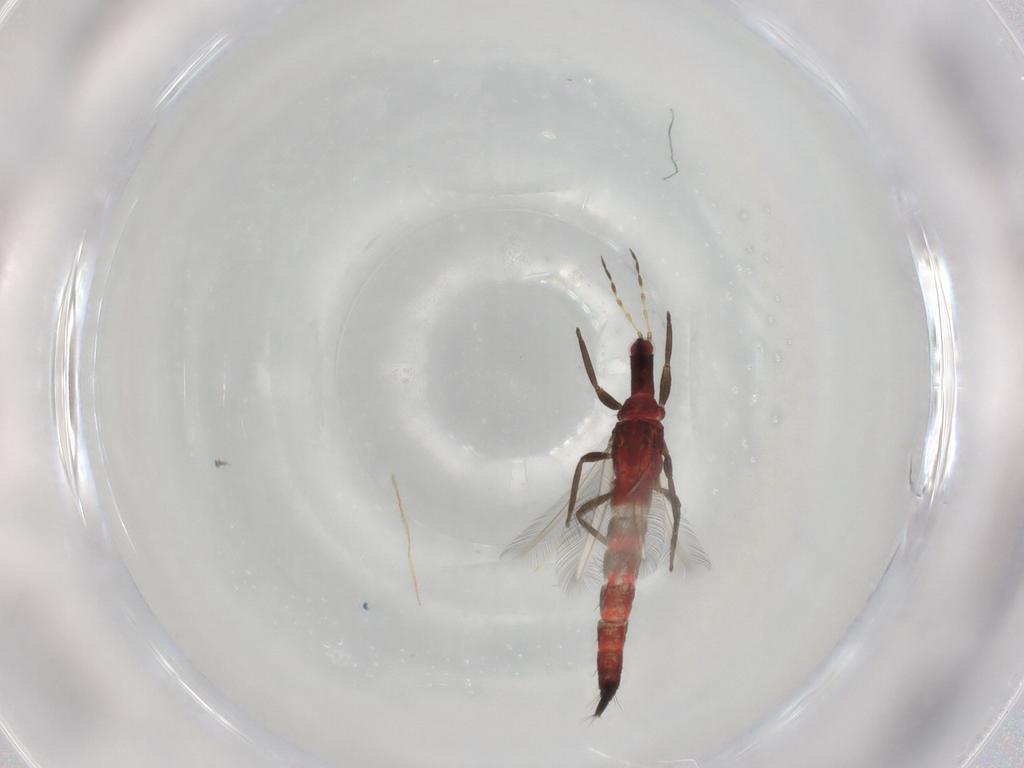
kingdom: Animalia
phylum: Arthropoda
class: Insecta
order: Thysanoptera
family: Phlaeothripidae
